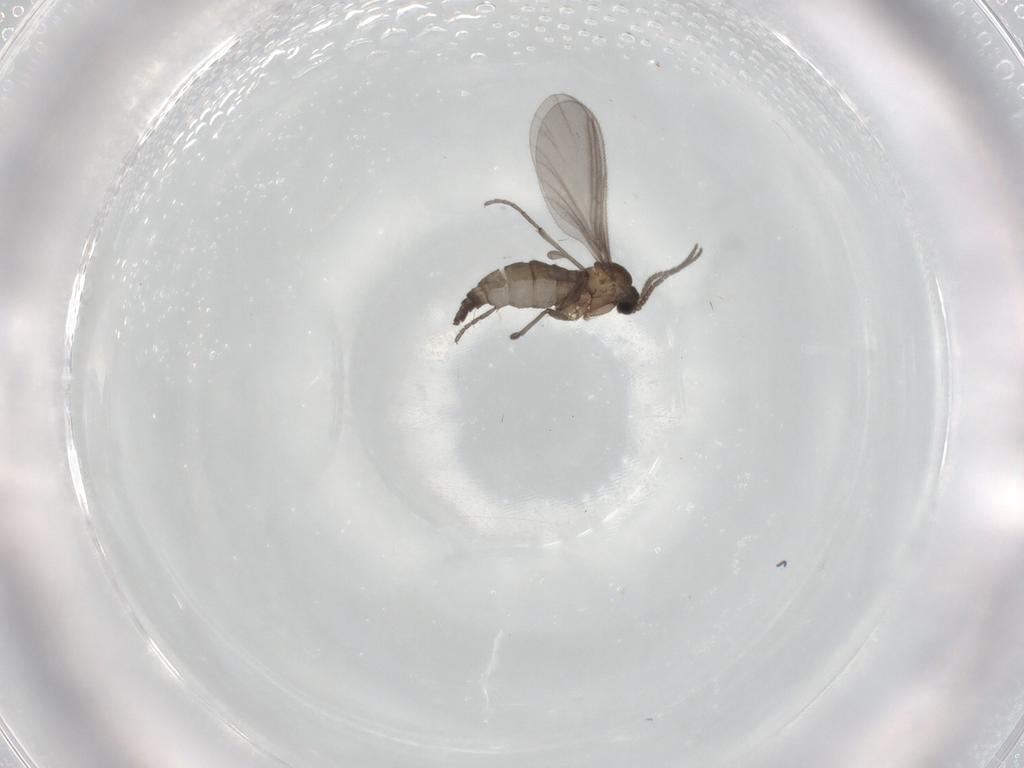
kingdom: Animalia
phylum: Arthropoda
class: Insecta
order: Diptera
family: Sciaridae
